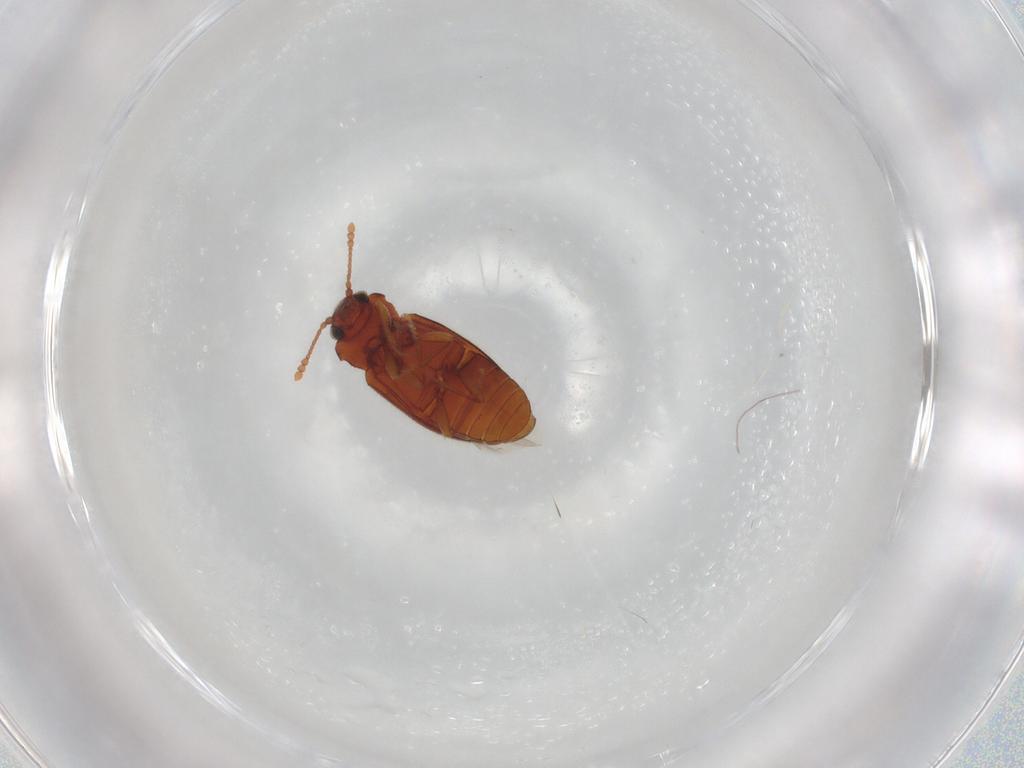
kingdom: Animalia
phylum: Arthropoda
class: Insecta
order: Coleoptera
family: Cryptophagidae
